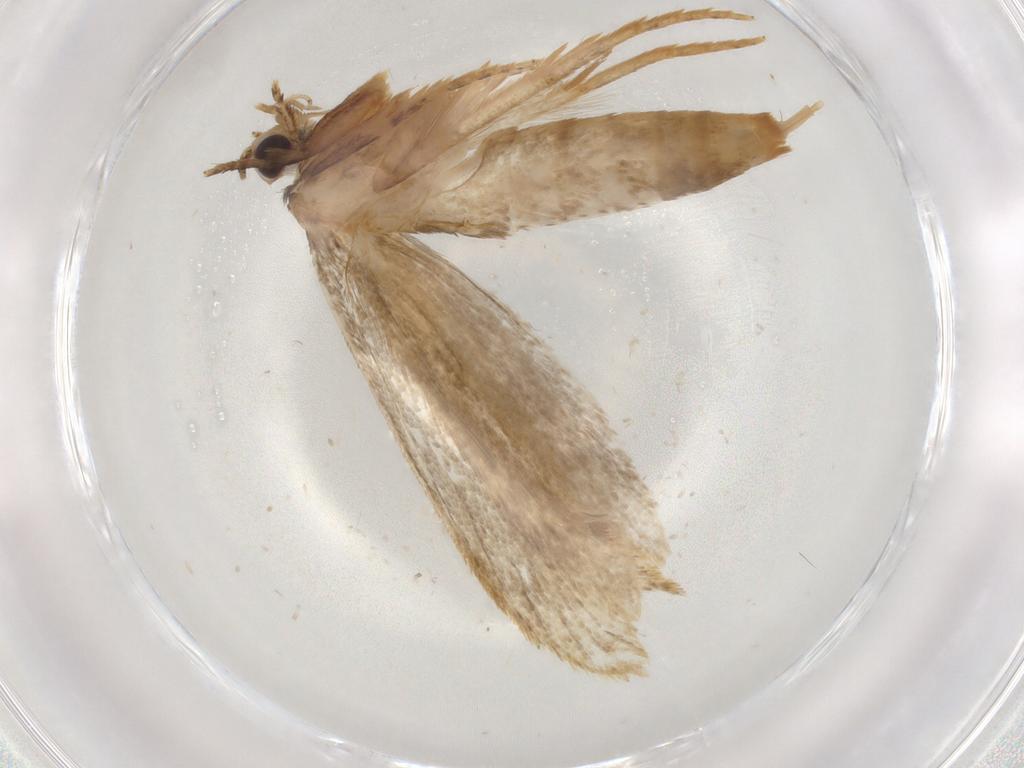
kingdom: Animalia
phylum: Arthropoda
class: Insecta
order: Lepidoptera
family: Tineidae
